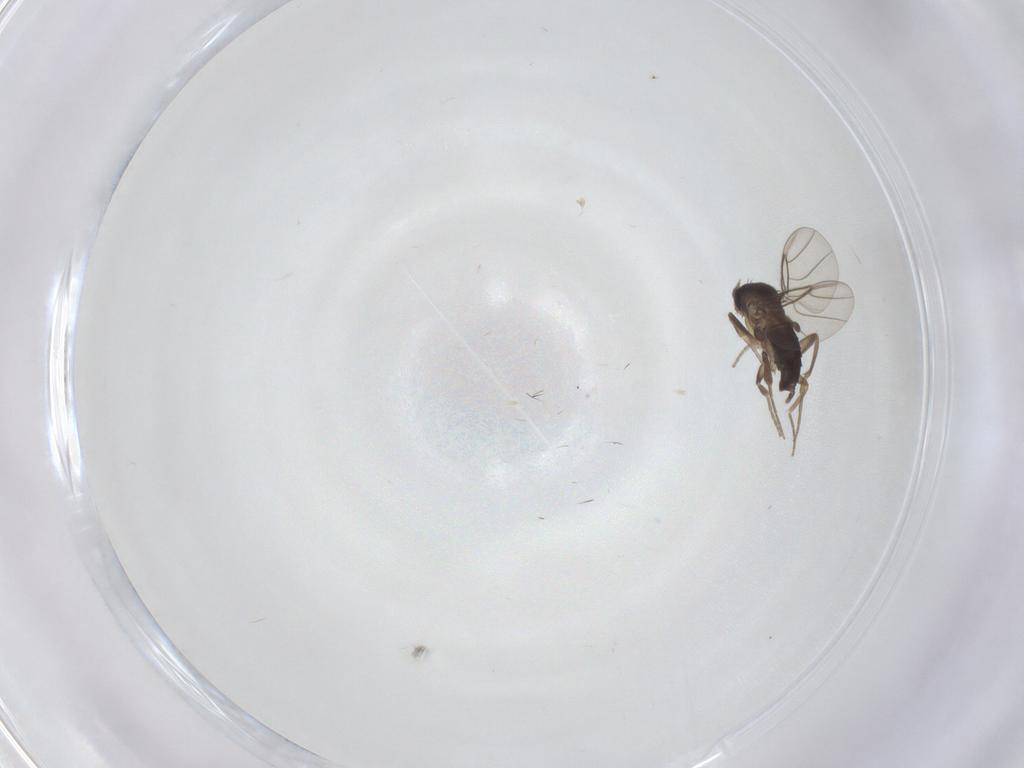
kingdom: Animalia
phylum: Arthropoda
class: Insecta
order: Diptera
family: Phoridae
